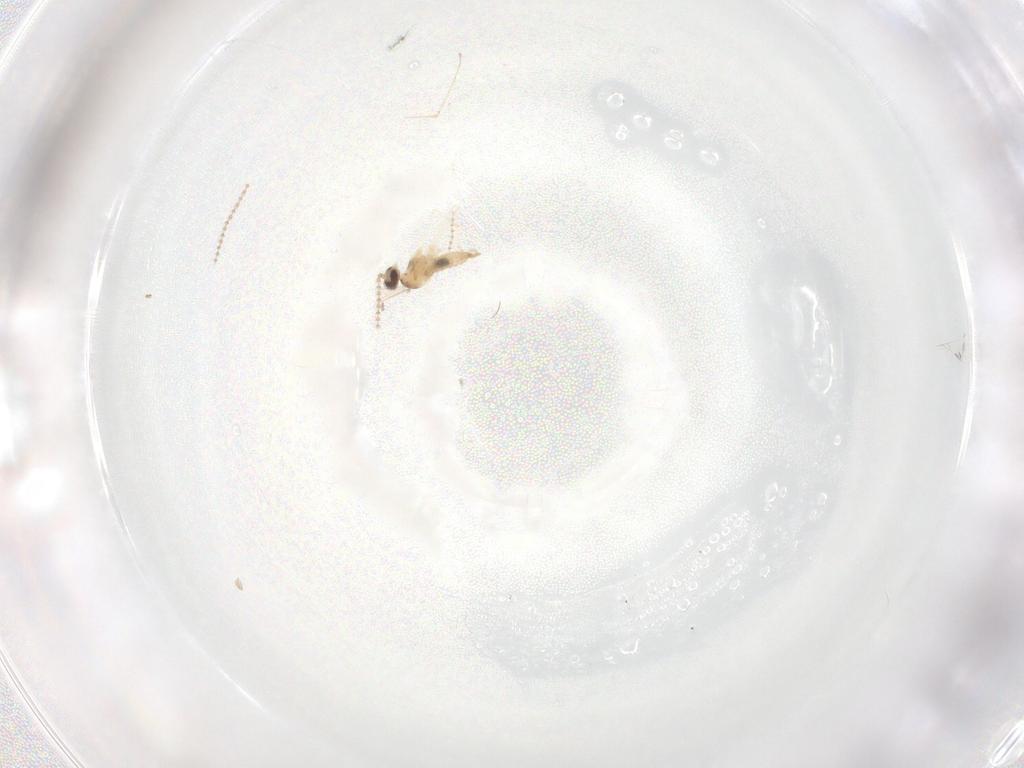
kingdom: Animalia
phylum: Arthropoda
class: Insecta
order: Diptera
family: Cecidomyiidae
